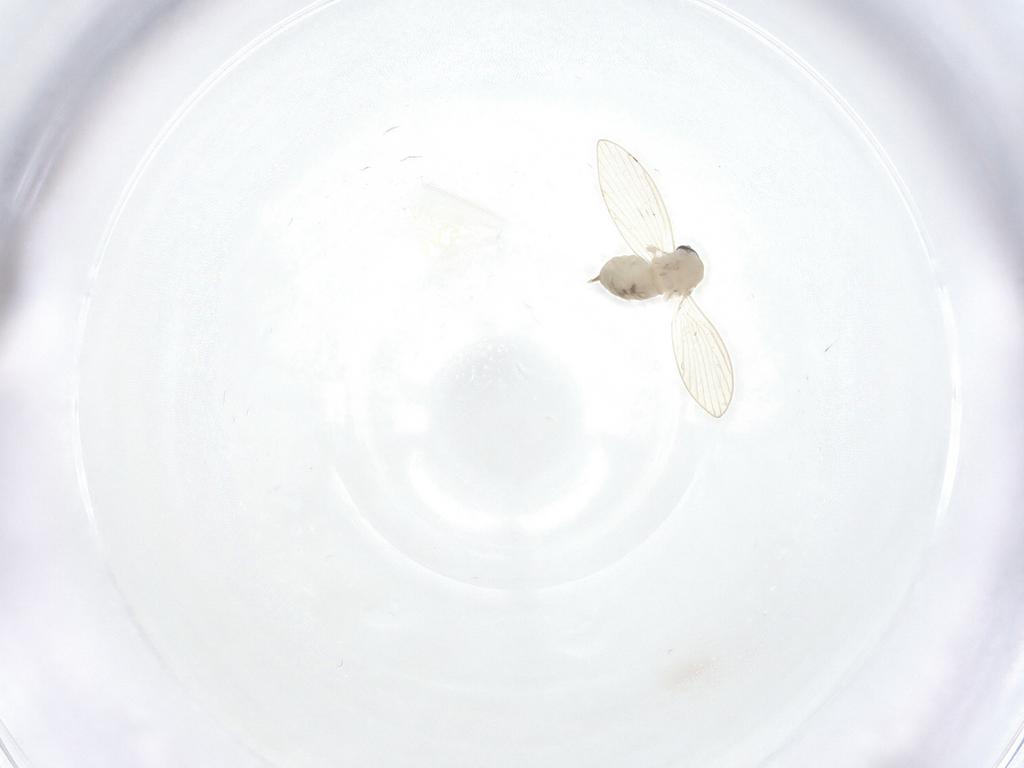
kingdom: Animalia
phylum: Arthropoda
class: Insecta
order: Diptera
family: Psychodidae
